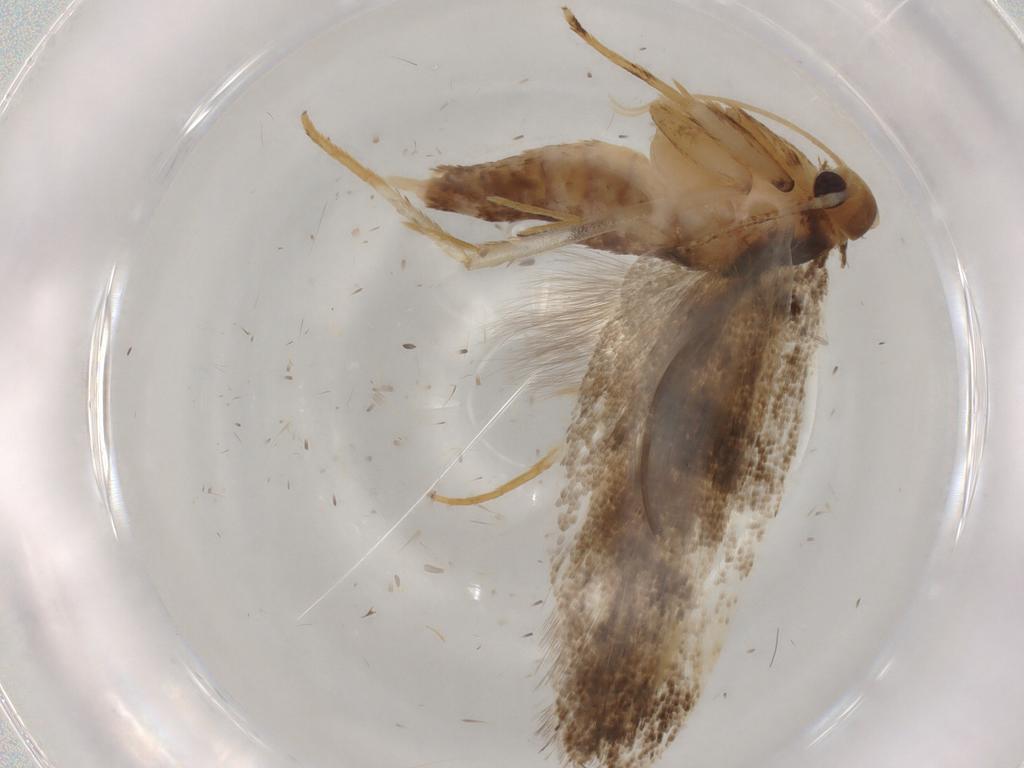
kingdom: Animalia
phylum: Arthropoda
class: Insecta
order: Lepidoptera
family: Lecithoceridae
